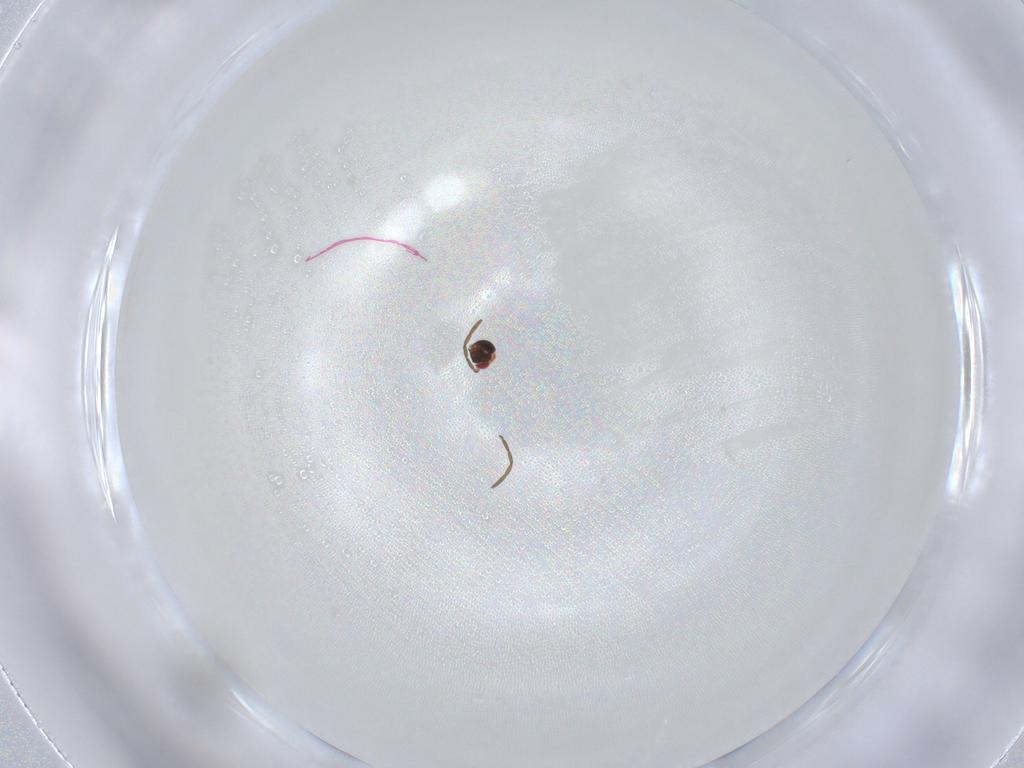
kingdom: Animalia
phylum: Arthropoda
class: Insecta
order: Hymenoptera
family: Azotidae
